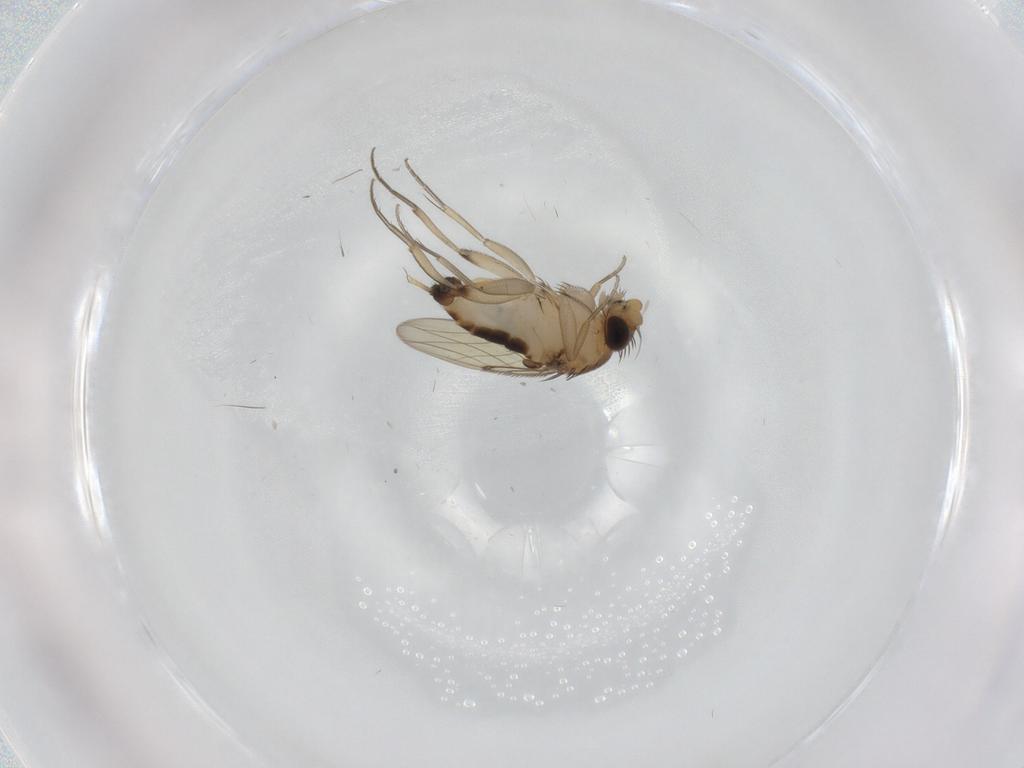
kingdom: Animalia
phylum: Arthropoda
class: Insecta
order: Diptera
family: Phoridae
